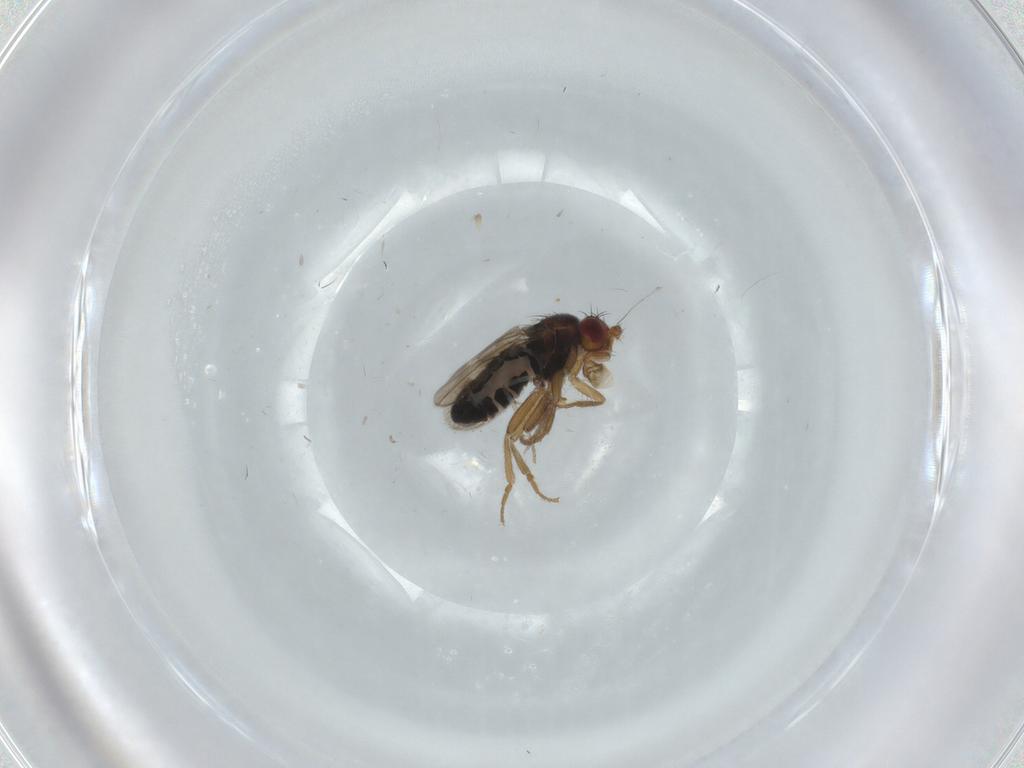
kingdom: Animalia
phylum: Arthropoda
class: Insecta
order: Diptera
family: Sphaeroceridae
